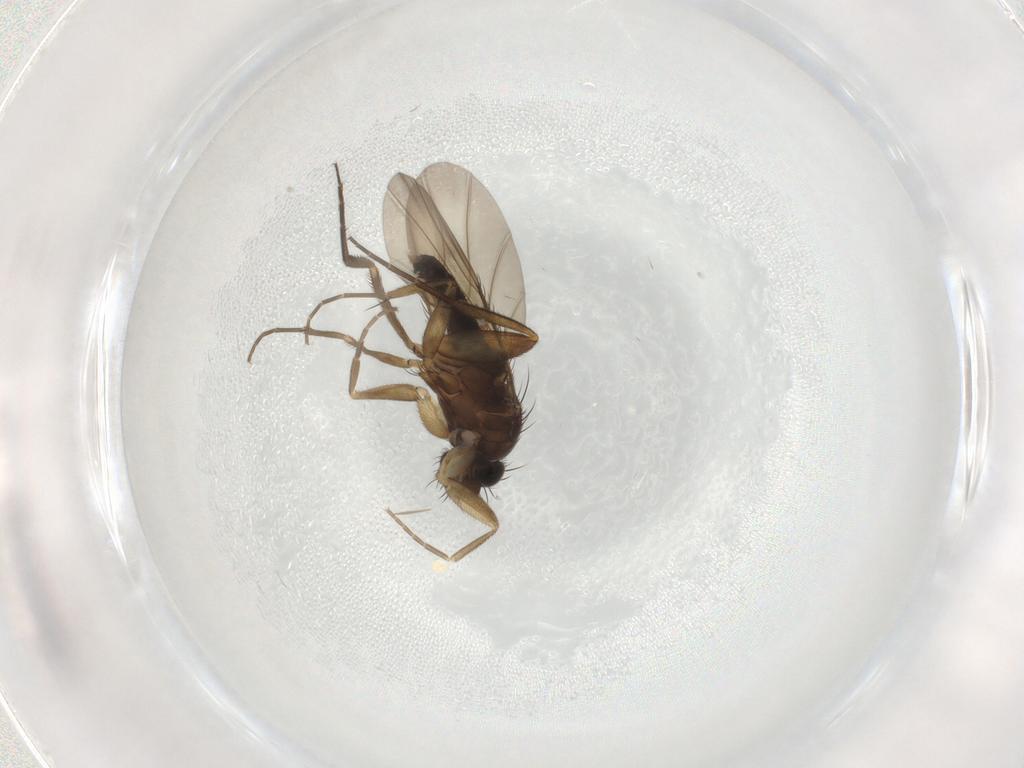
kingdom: Animalia
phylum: Arthropoda
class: Insecta
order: Diptera
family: Phoridae
